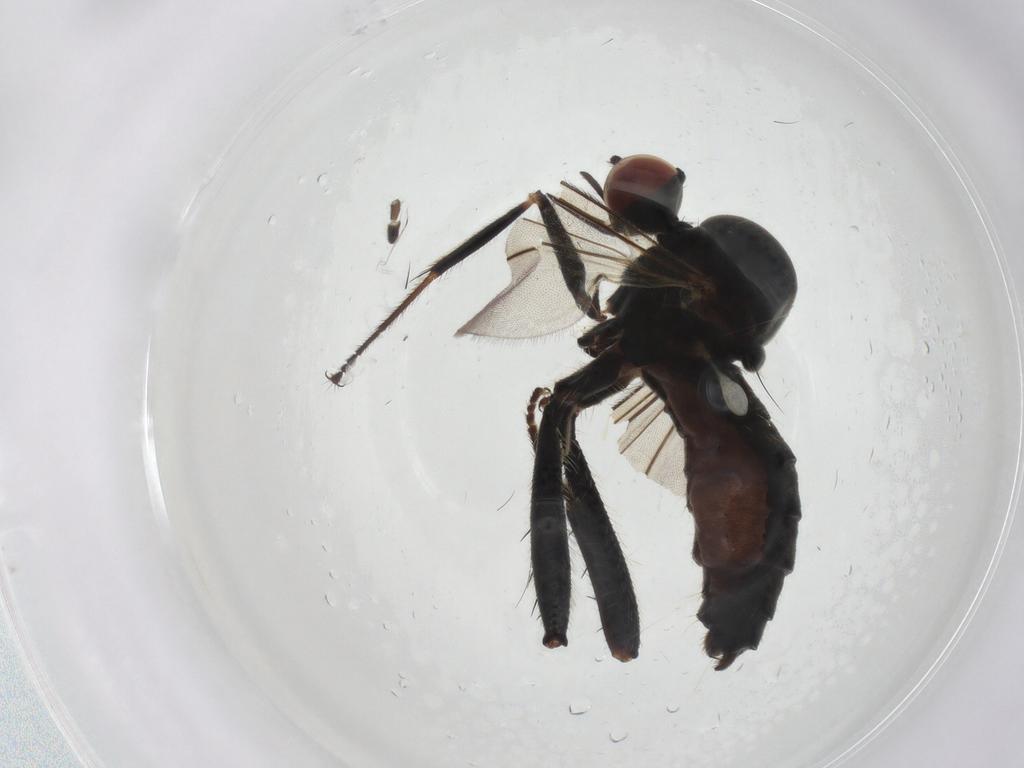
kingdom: Animalia
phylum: Arthropoda
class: Insecta
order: Diptera
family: Hybotidae
